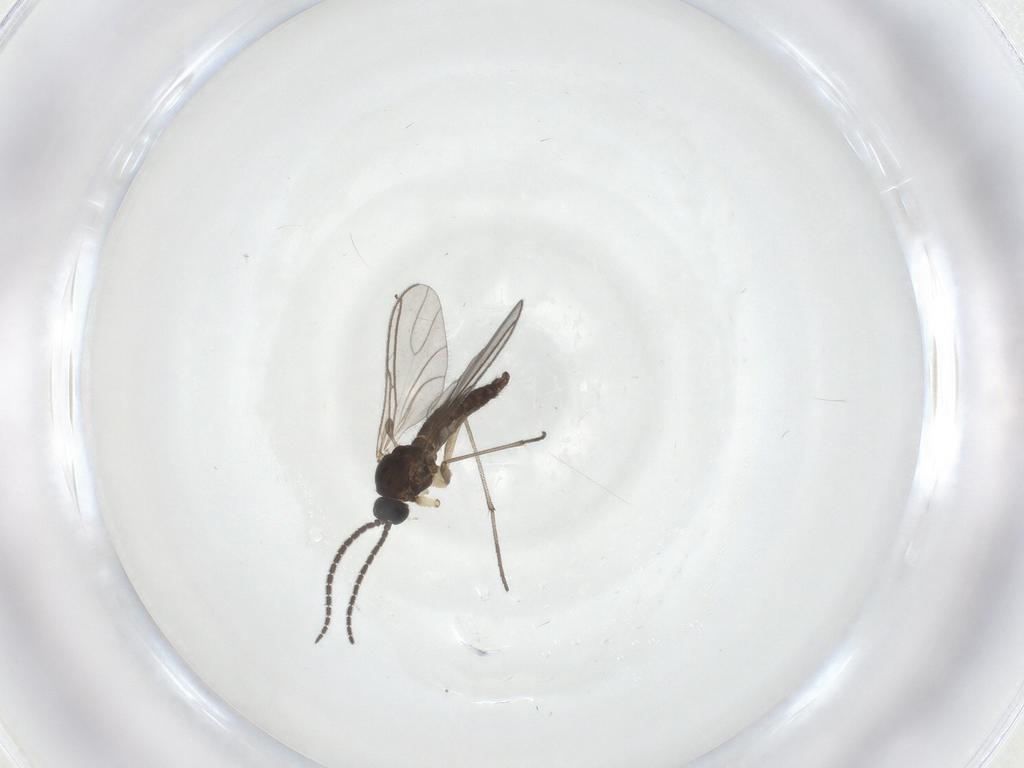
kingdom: Animalia
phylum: Arthropoda
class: Insecta
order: Diptera
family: Sciaridae
